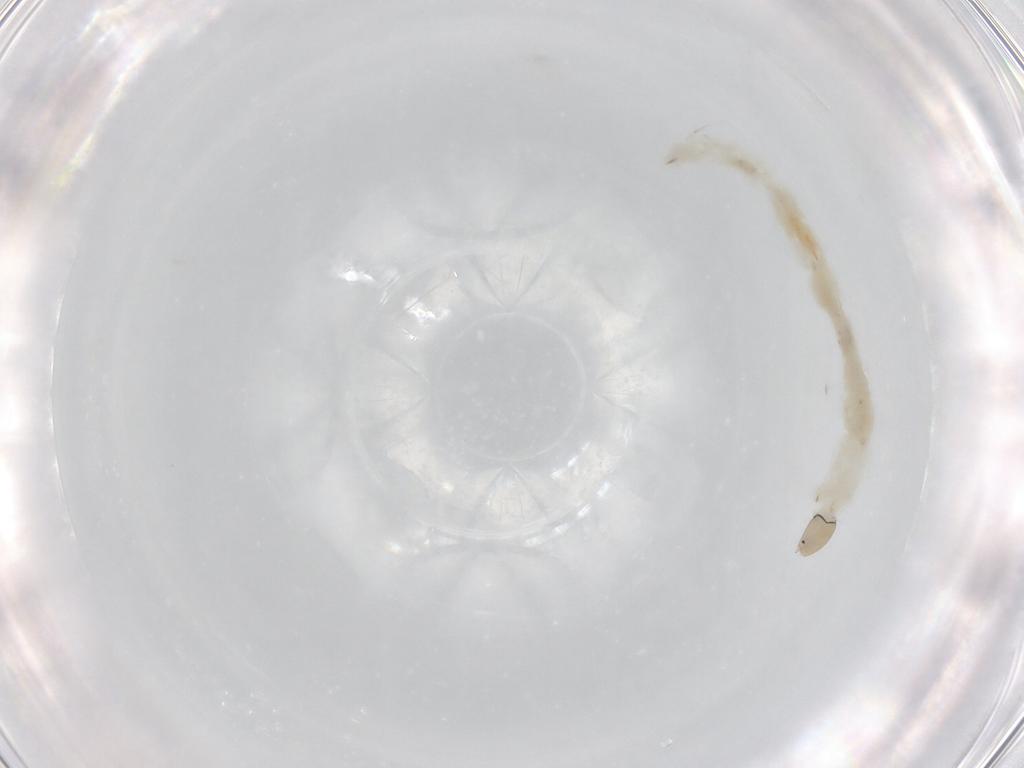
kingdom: Animalia
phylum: Arthropoda
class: Insecta
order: Diptera
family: Chironomidae
